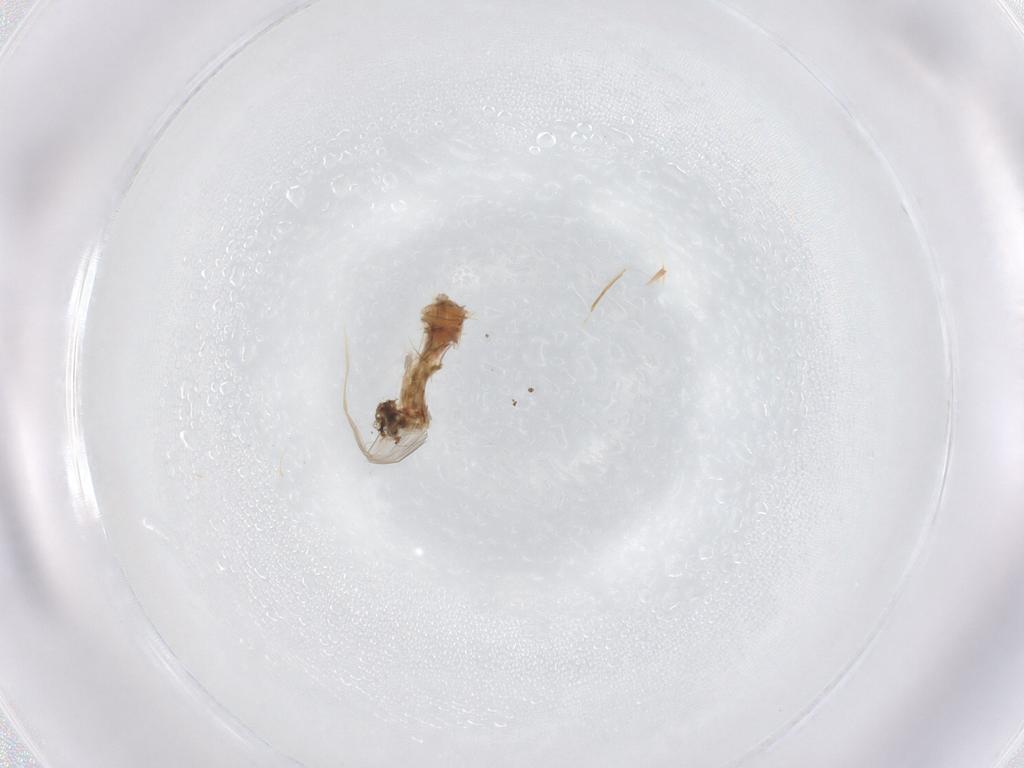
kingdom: Animalia
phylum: Arthropoda
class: Insecta
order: Diptera
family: Chironomidae
